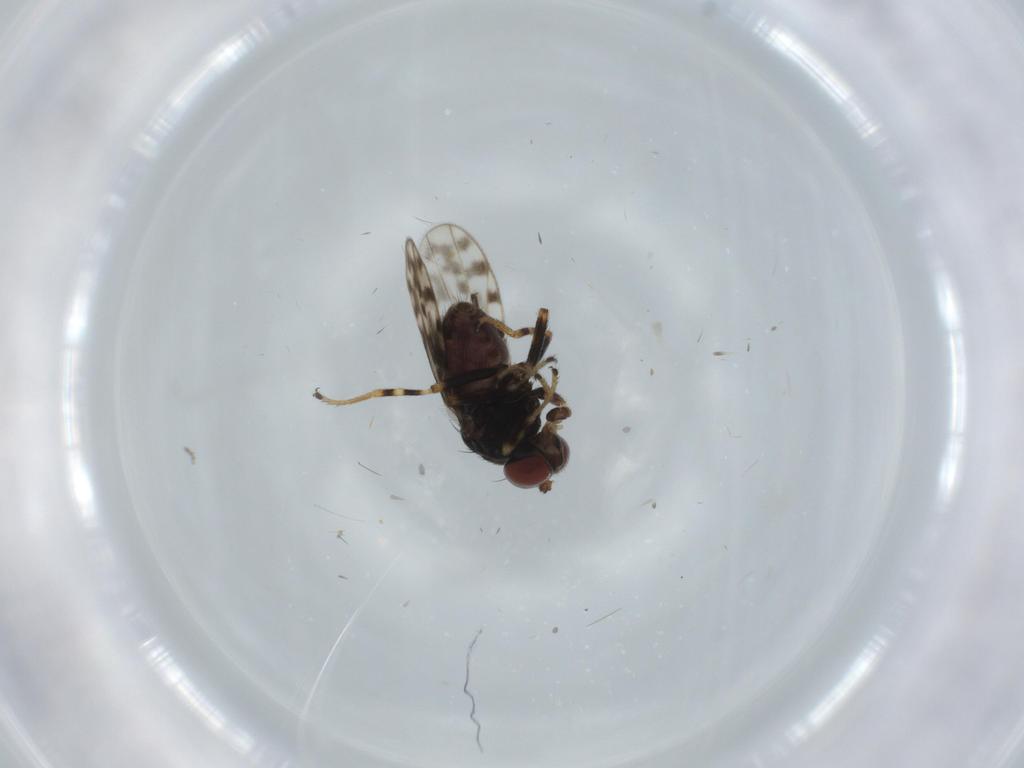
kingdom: Animalia
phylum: Arthropoda
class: Insecta
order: Diptera
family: Ephydridae
